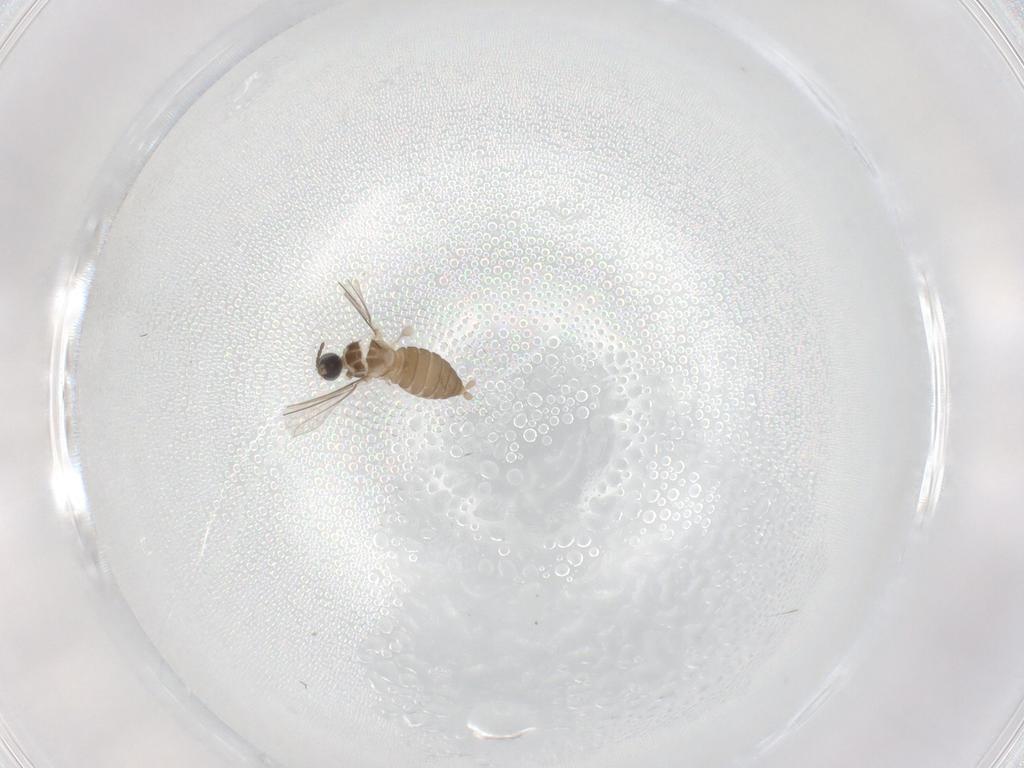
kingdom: Animalia
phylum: Arthropoda
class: Insecta
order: Diptera
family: Cecidomyiidae
